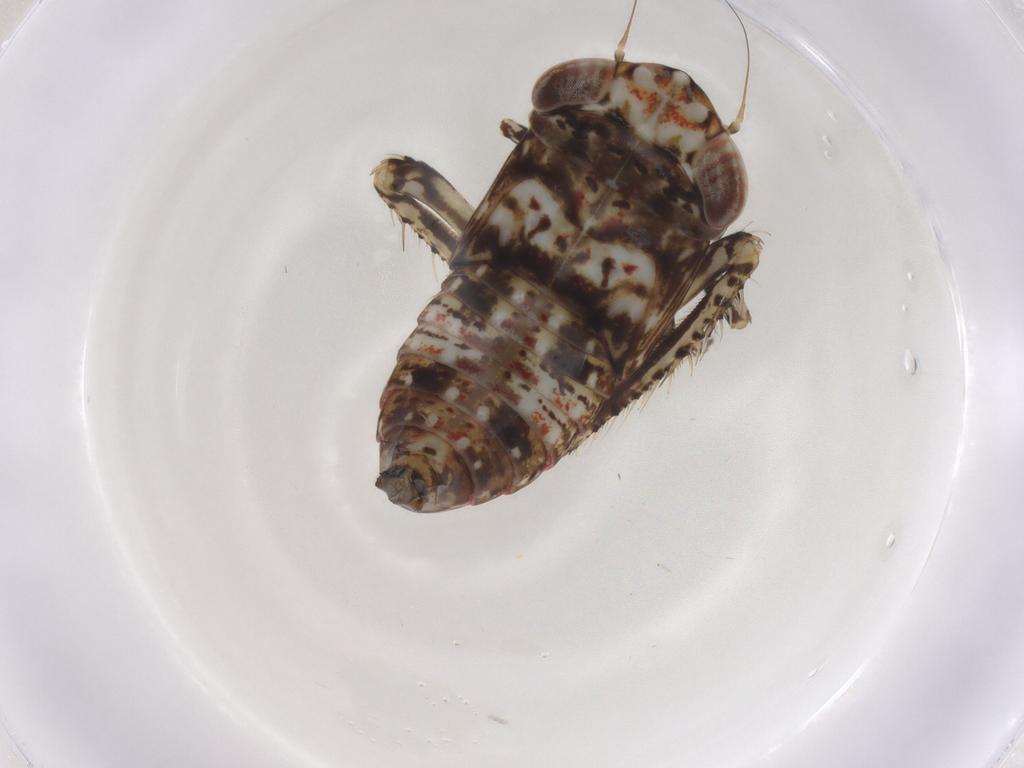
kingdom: Animalia
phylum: Arthropoda
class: Insecta
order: Hemiptera
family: Cicadellidae
